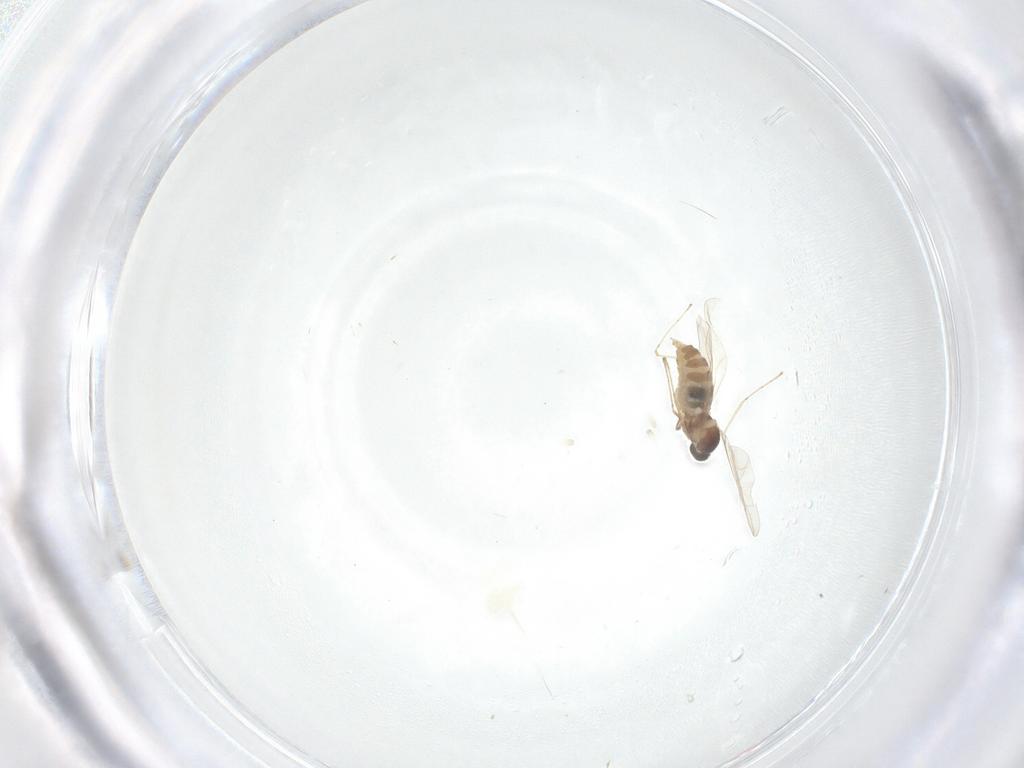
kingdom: Animalia
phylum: Arthropoda
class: Insecta
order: Diptera
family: Cecidomyiidae
